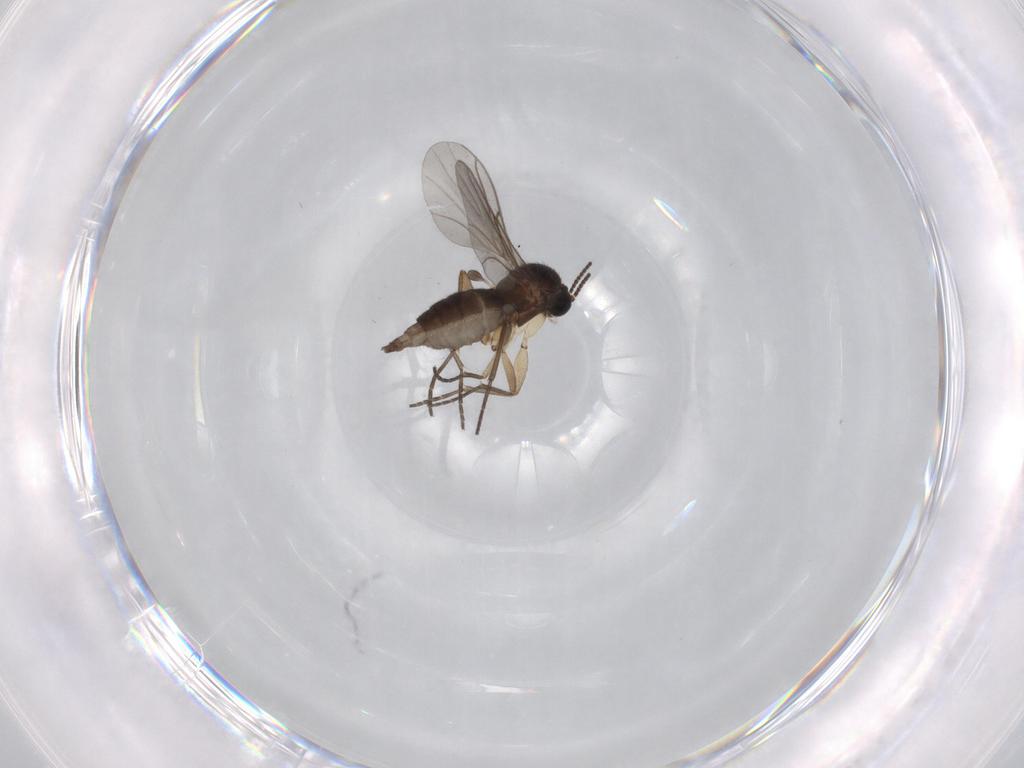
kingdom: Animalia
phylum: Arthropoda
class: Insecta
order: Diptera
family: Sciaridae
